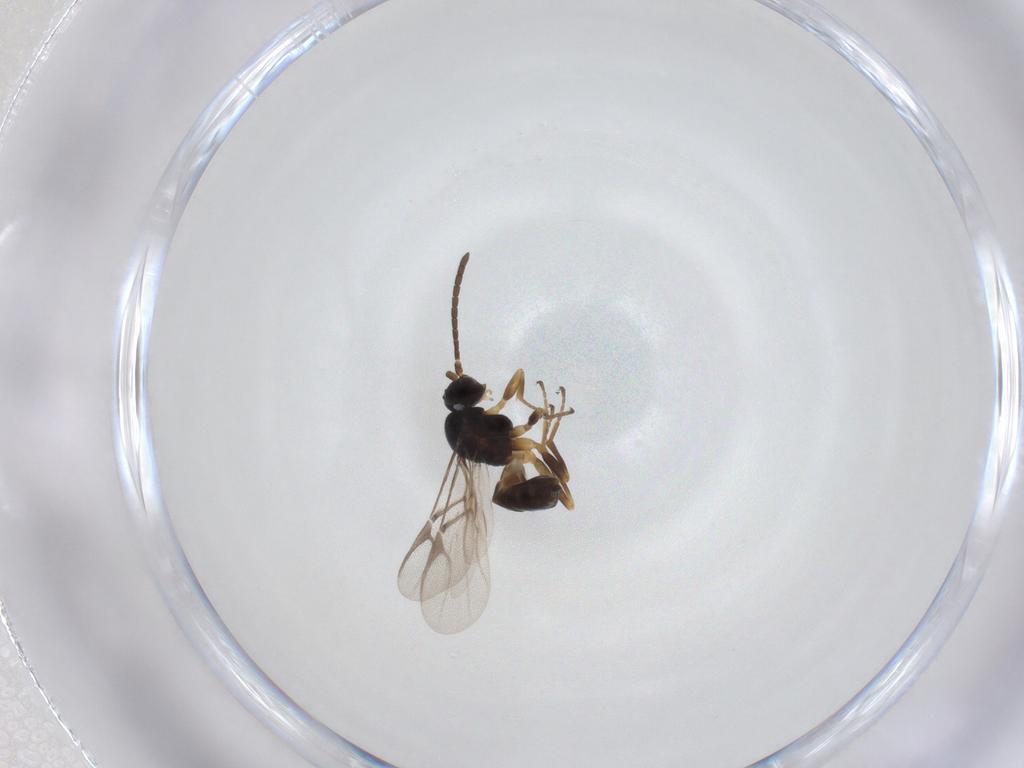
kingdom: Animalia
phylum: Arthropoda
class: Insecta
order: Hymenoptera
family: Braconidae
